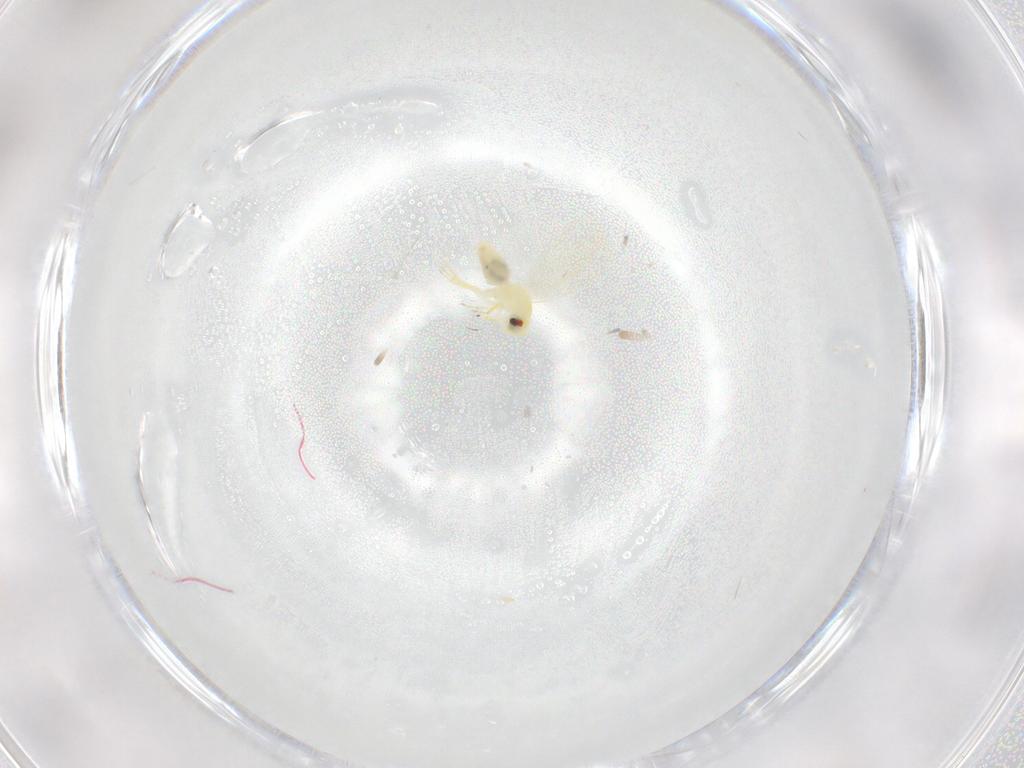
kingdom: Animalia
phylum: Arthropoda
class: Insecta
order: Hemiptera
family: Aleyrodidae
